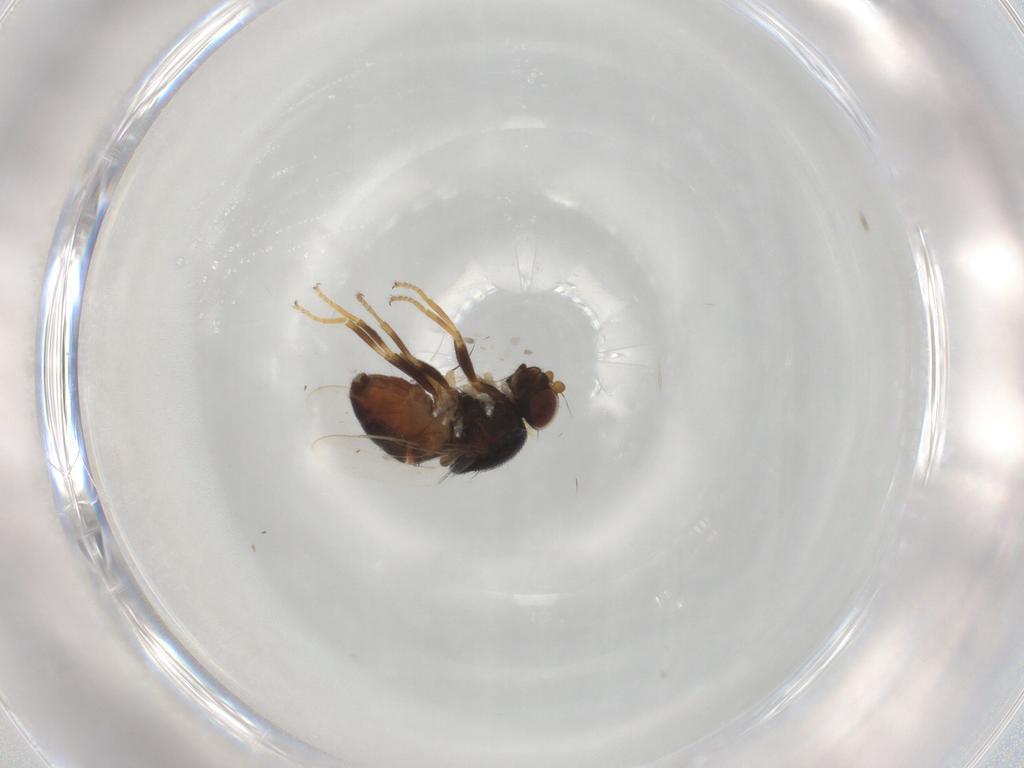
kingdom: Animalia
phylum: Arthropoda
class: Insecta
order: Diptera
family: Chloropidae
